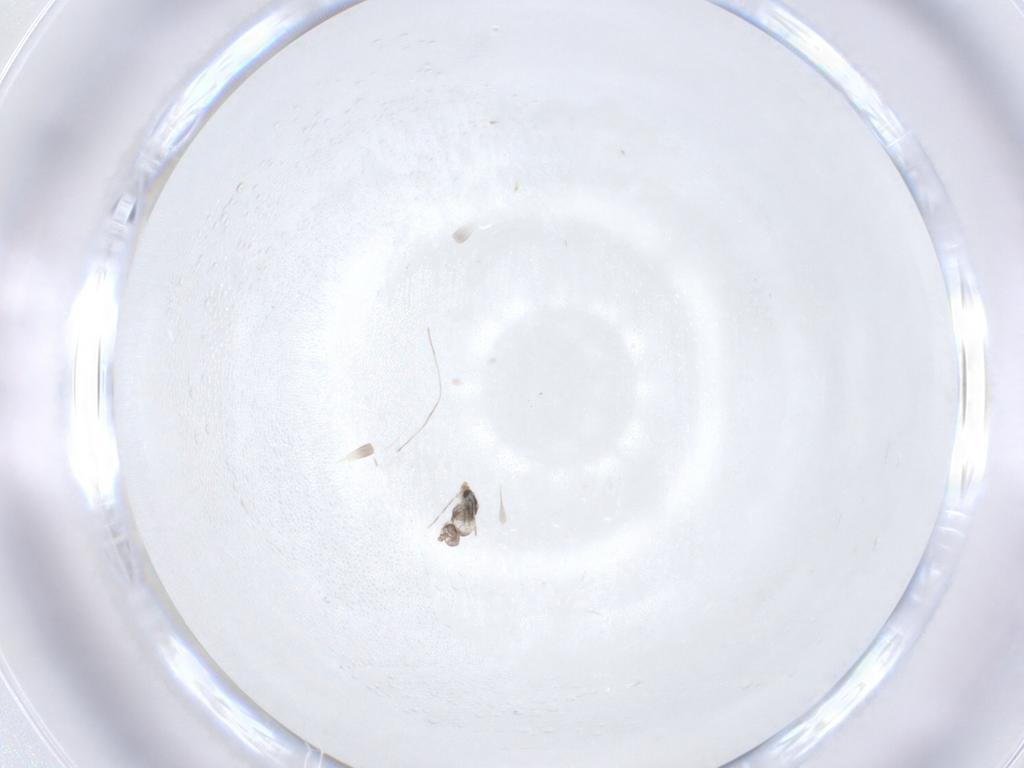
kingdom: Animalia
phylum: Arthropoda
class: Insecta
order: Diptera
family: Cecidomyiidae
